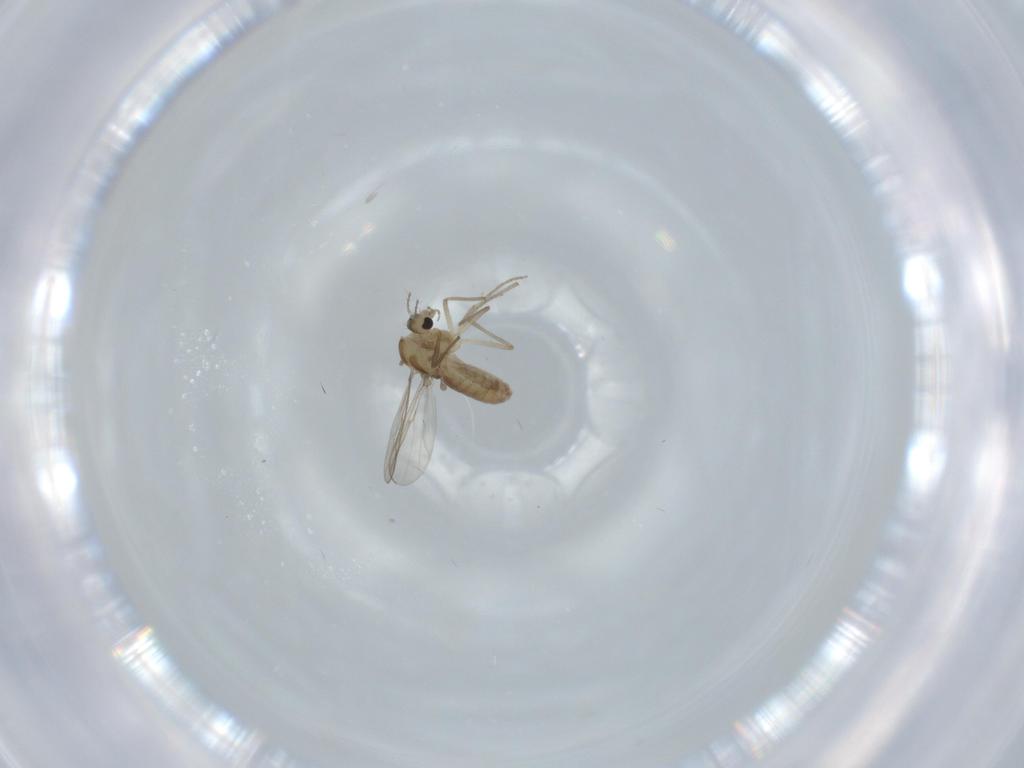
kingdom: Animalia
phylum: Arthropoda
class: Insecta
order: Diptera
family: Chironomidae
